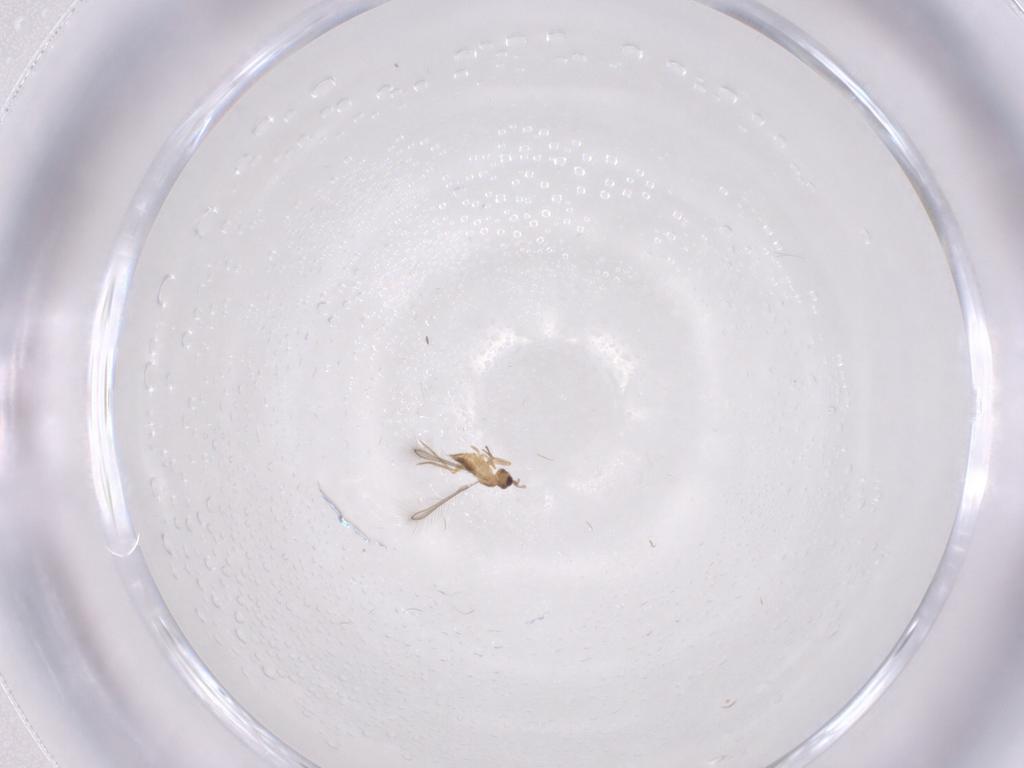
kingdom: Animalia
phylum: Arthropoda
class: Insecta
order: Hymenoptera
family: Mymaridae
